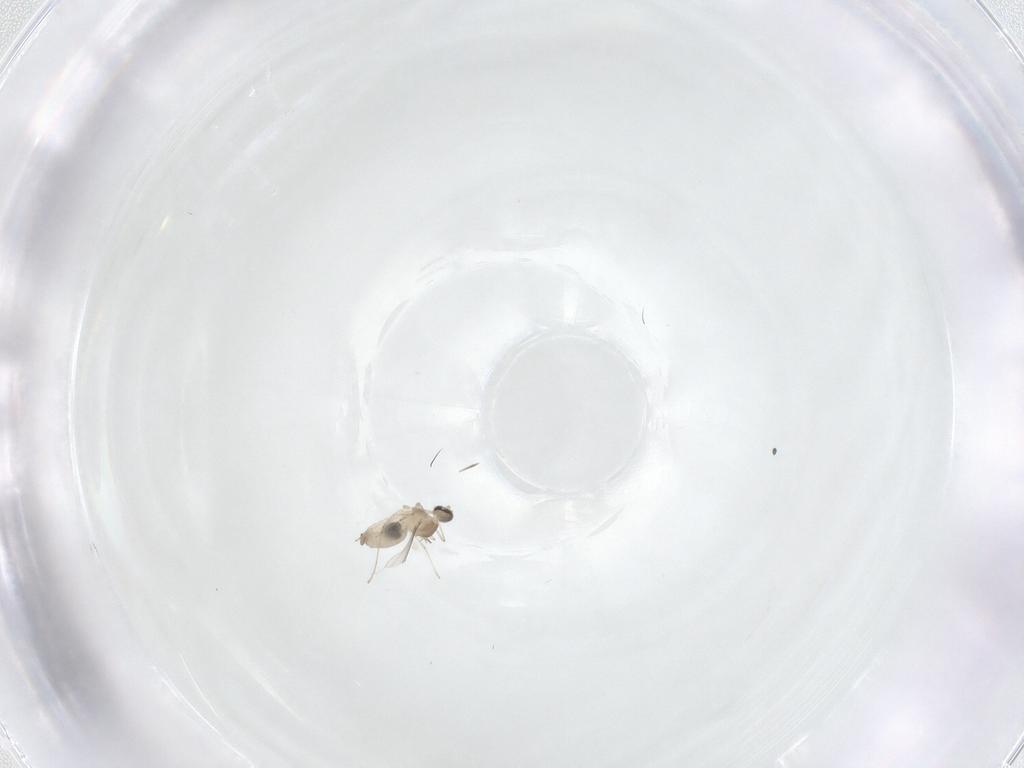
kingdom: Animalia
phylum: Arthropoda
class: Insecta
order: Diptera
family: Cecidomyiidae
